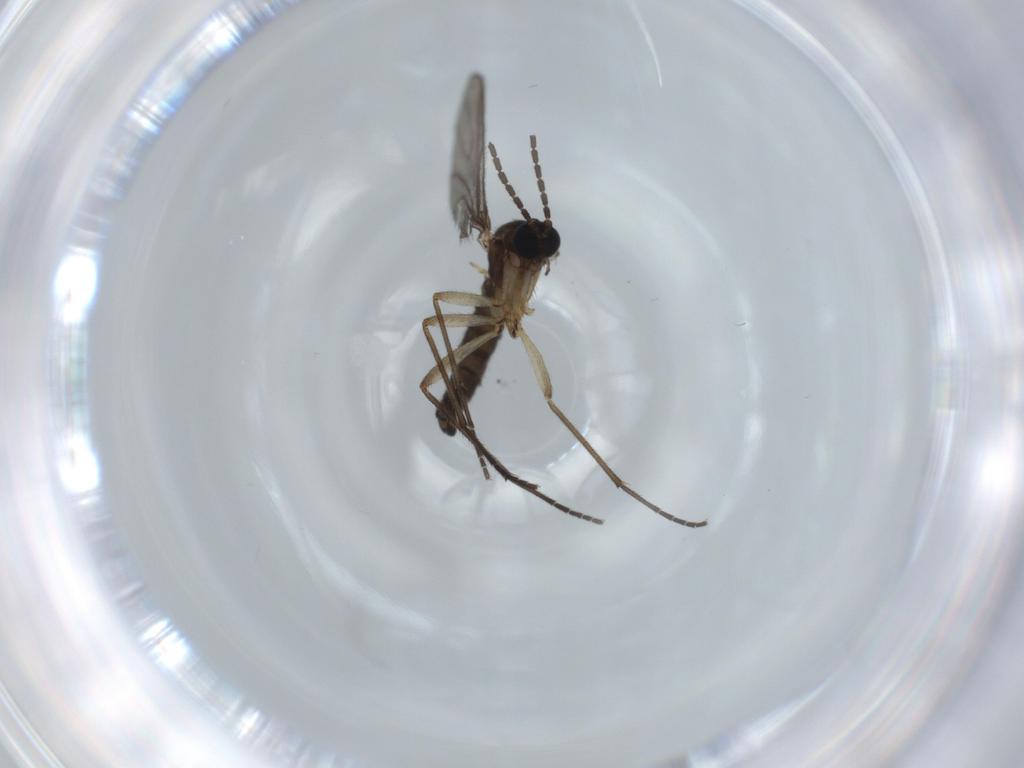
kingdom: Animalia
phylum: Arthropoda
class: Insecta
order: Diptera
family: Sciaridae
